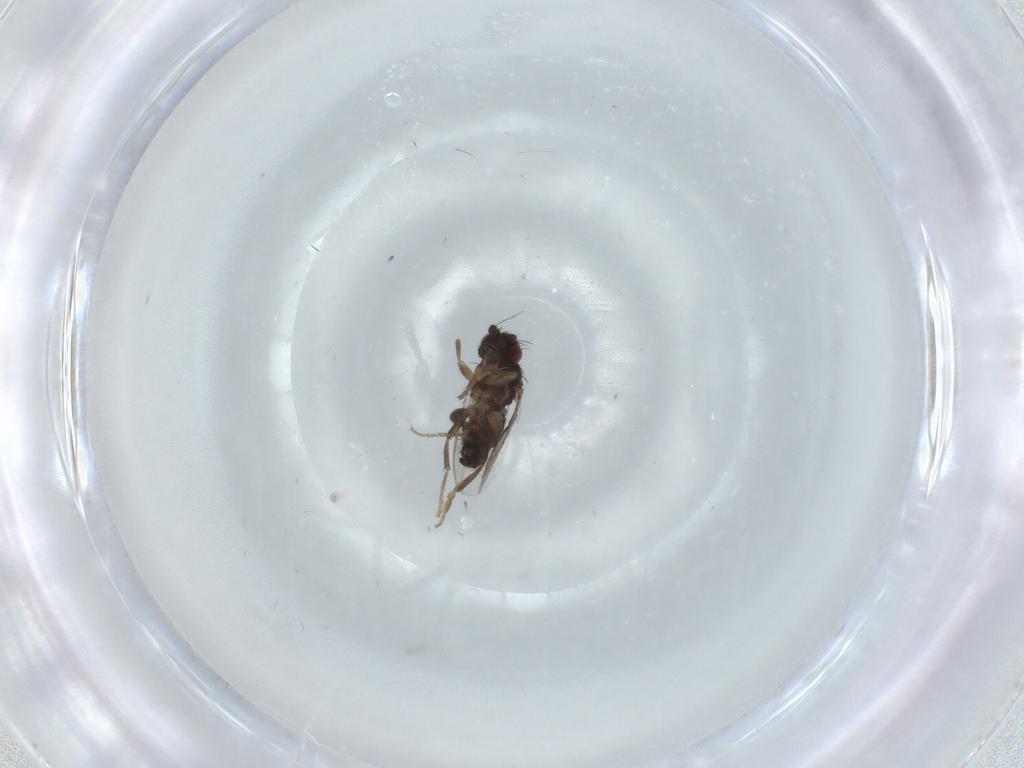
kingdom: Animalia
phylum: Arthropoda
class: Insecta
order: Diptera
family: Sphaeroceridae
